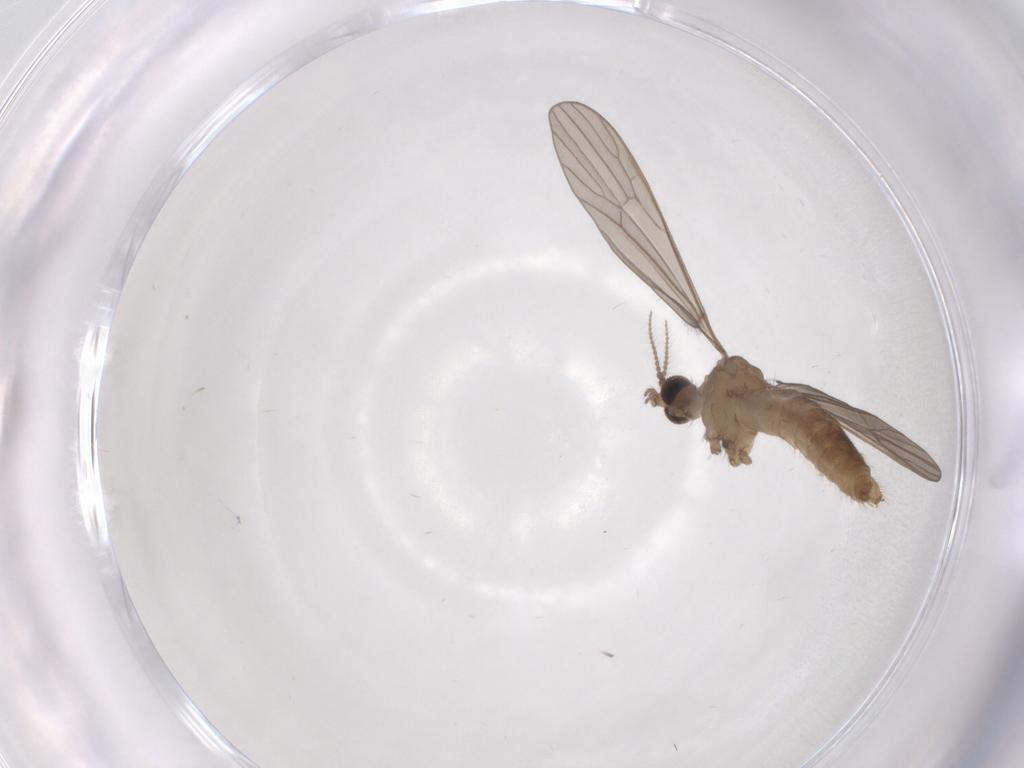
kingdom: Animalia
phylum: Arthropoda
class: Insecta
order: Diptera
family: Limoniidae
